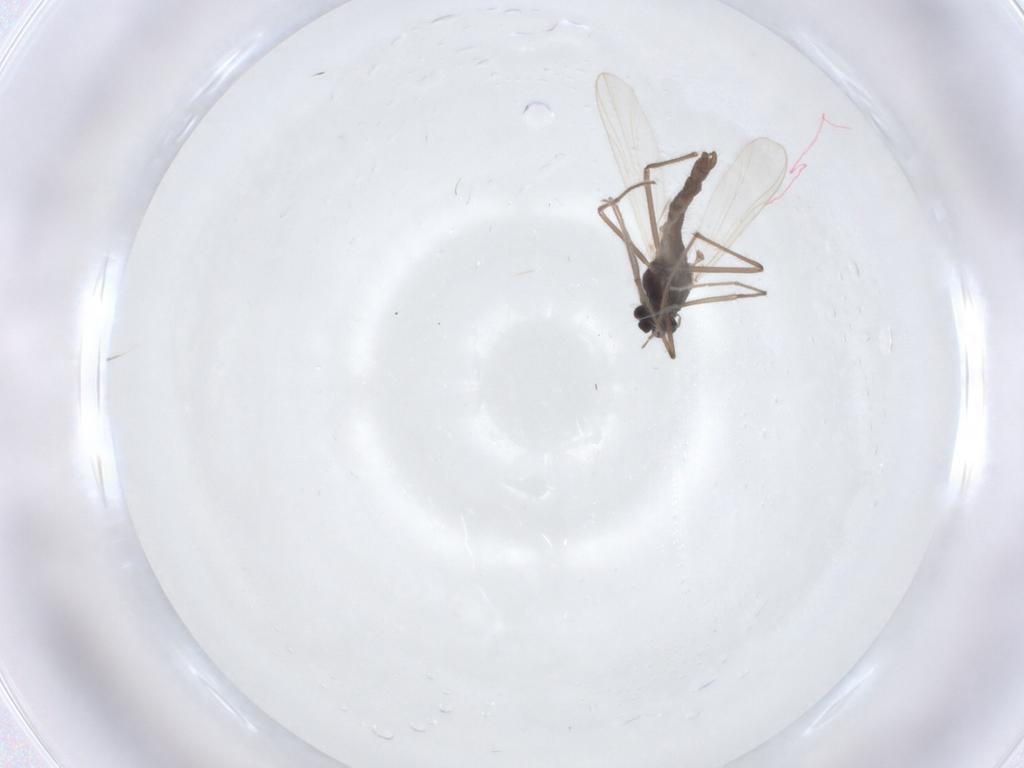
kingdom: Animalia
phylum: Arthropoda
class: Insecta
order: Diptera
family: Chironomidae
